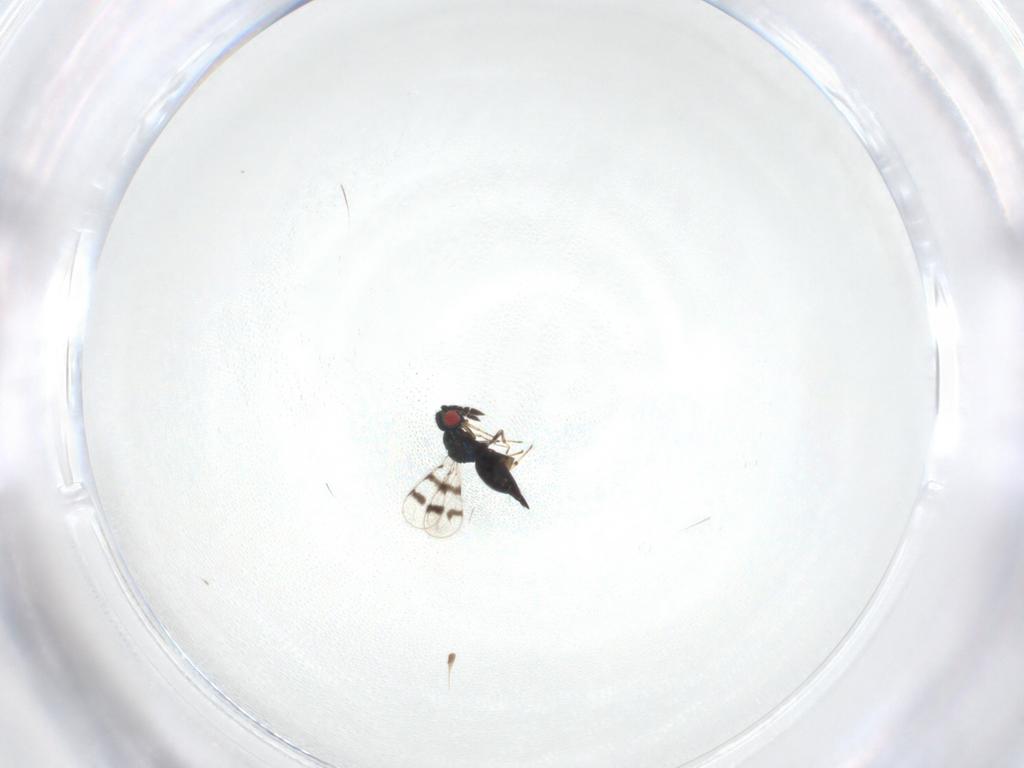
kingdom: Animalia
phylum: Arthropoda
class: Insecta
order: Hymenoptera
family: Eulophidae
